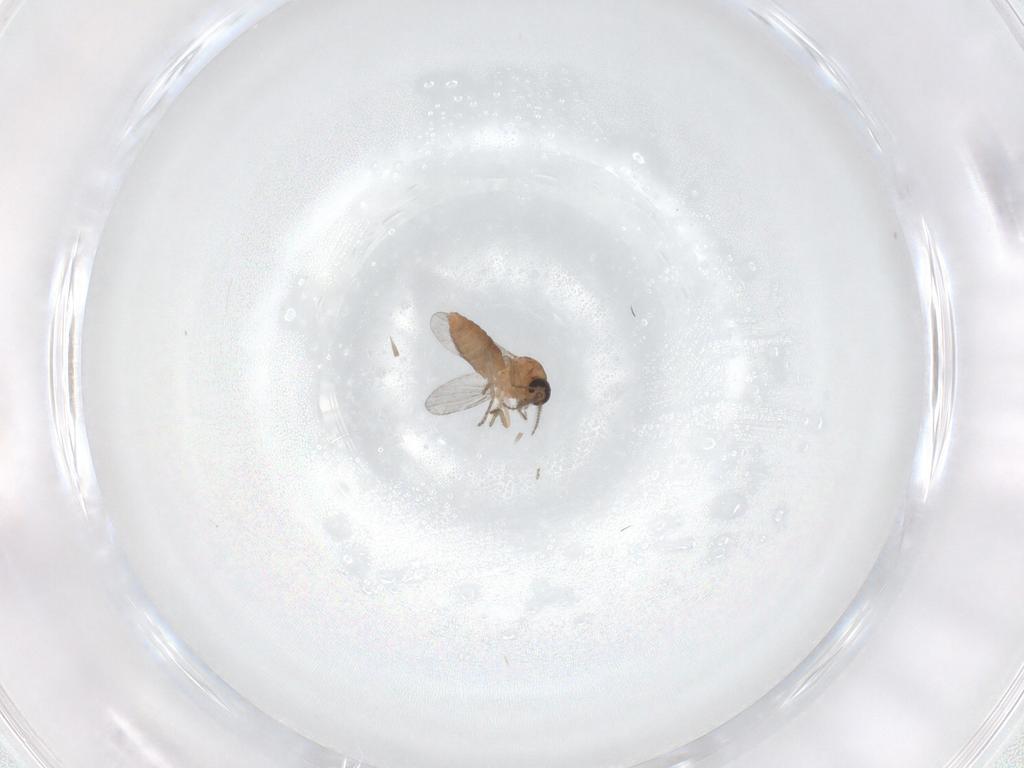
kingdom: Animalia
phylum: Arthropoda
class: Insecta
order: Diptera
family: Ceratopogonidae
